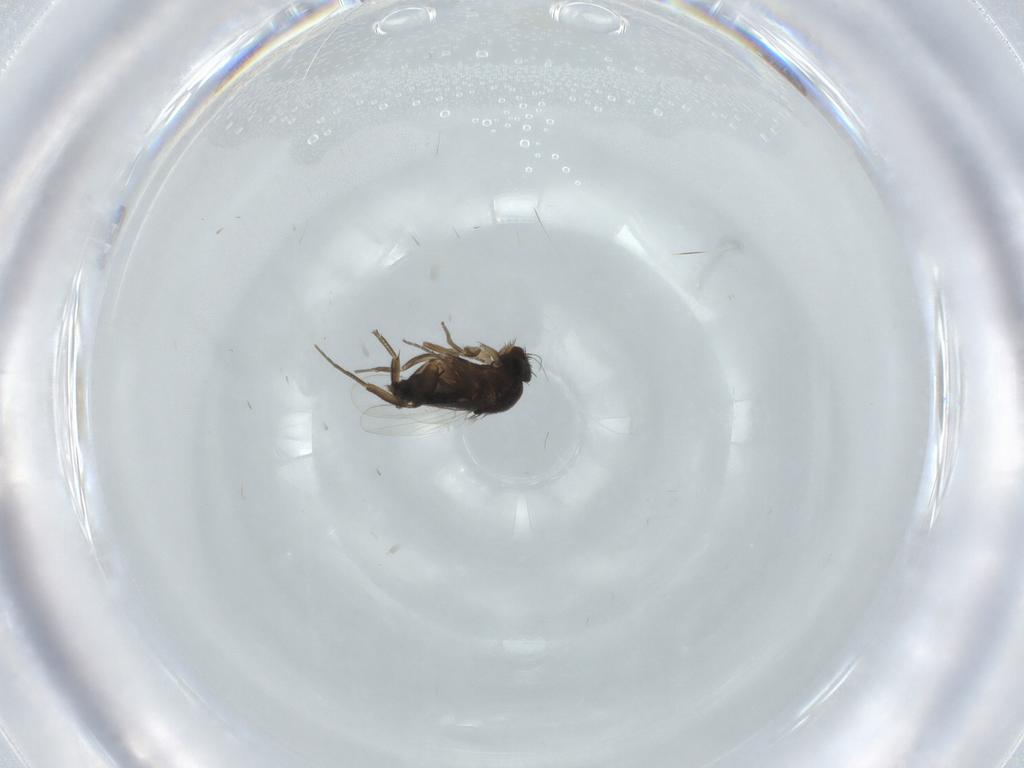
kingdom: Animalia
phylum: Arthropoda
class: Insecta
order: Diptera
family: Phoridae
